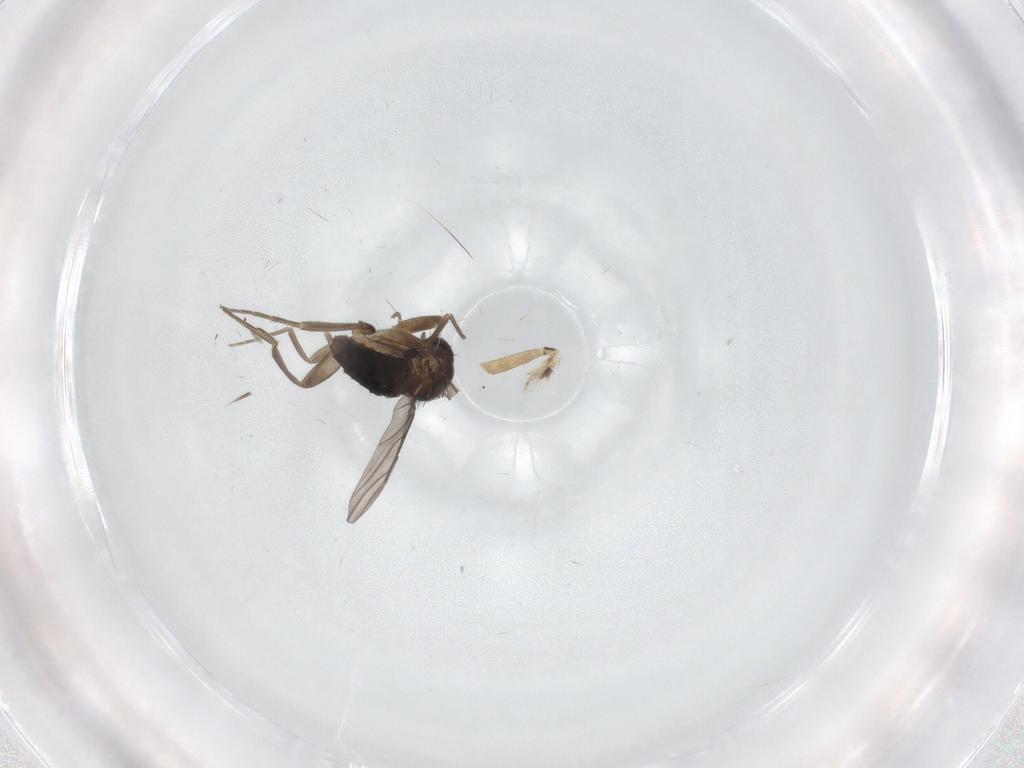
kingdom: Animalia
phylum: Arthropoda
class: Insecta
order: Diptera
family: Phoridae
